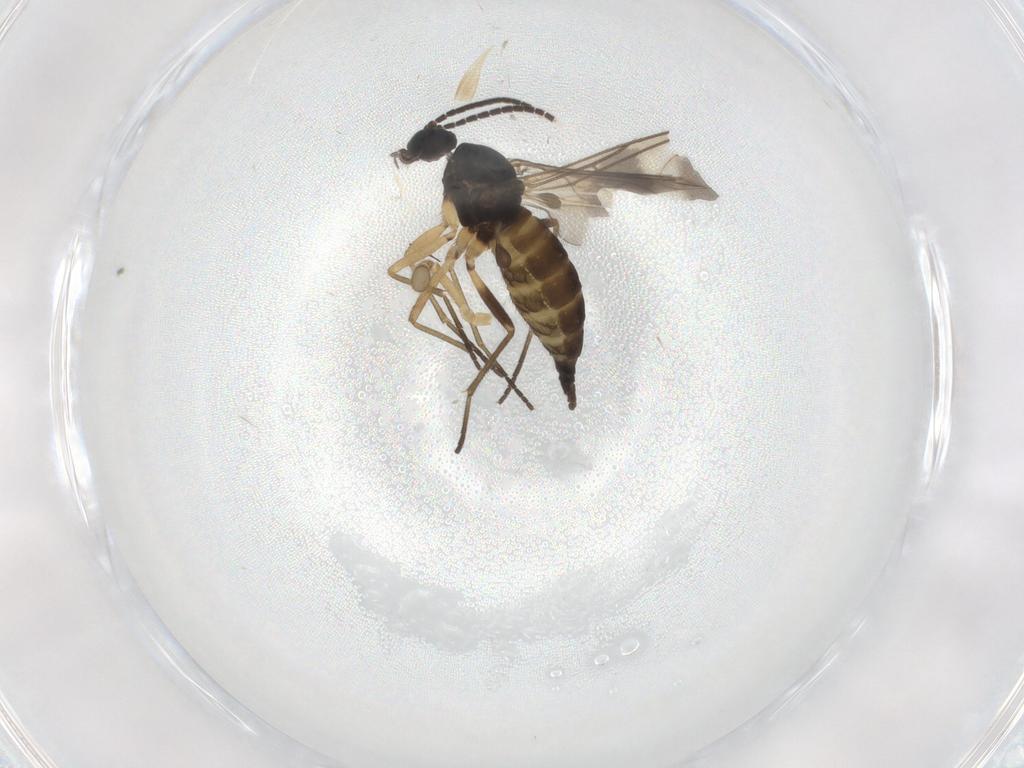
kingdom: Animalia
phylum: Arthropoda
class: Insecta
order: Diptera
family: Sciaridae
